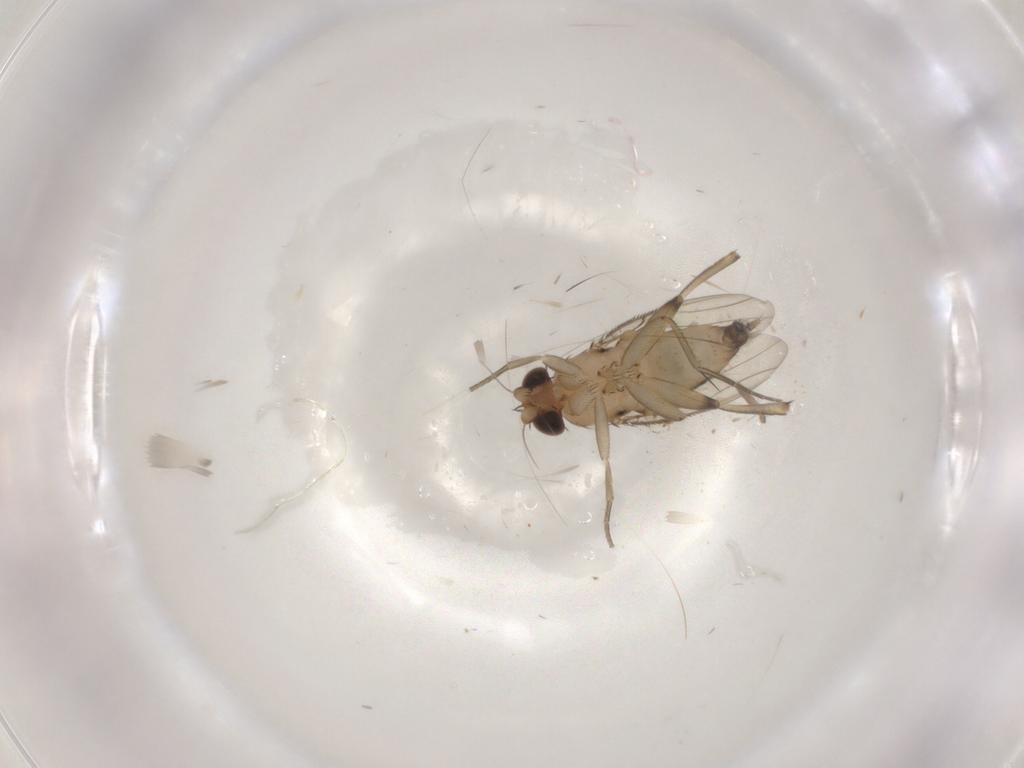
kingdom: Animalia
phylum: Arthropoda
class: Insecta
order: Diptera
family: Phoridae
